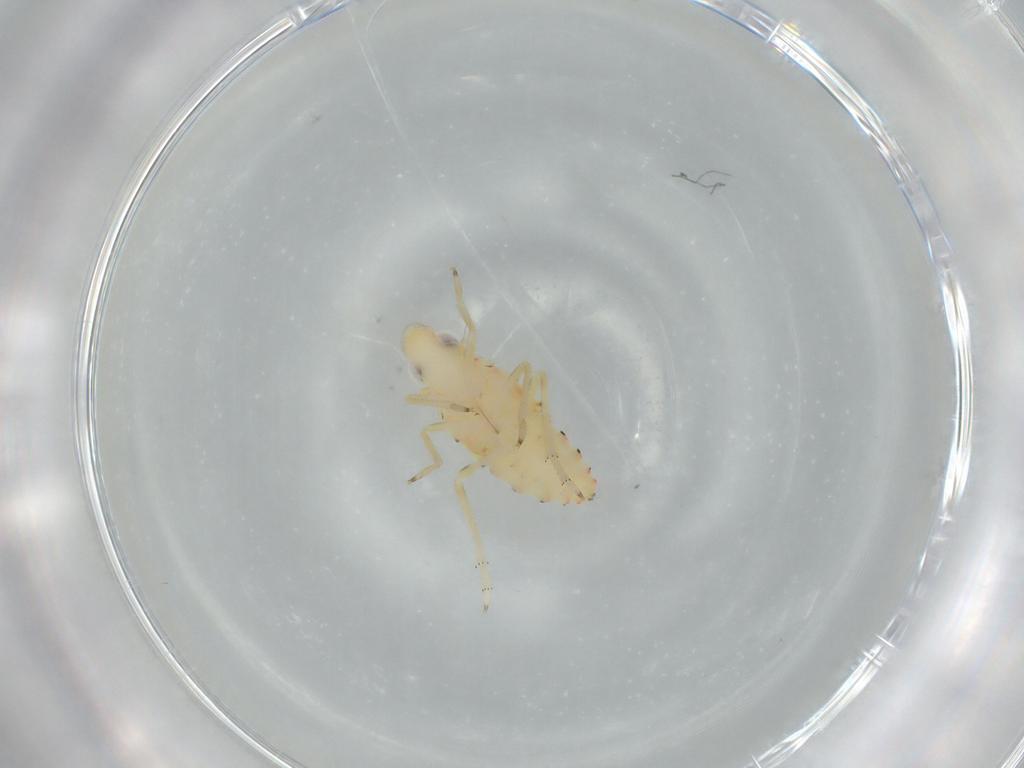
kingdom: Animalia
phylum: Arthropoda
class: Insecta
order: Hemiptera
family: Tropiduchidae
